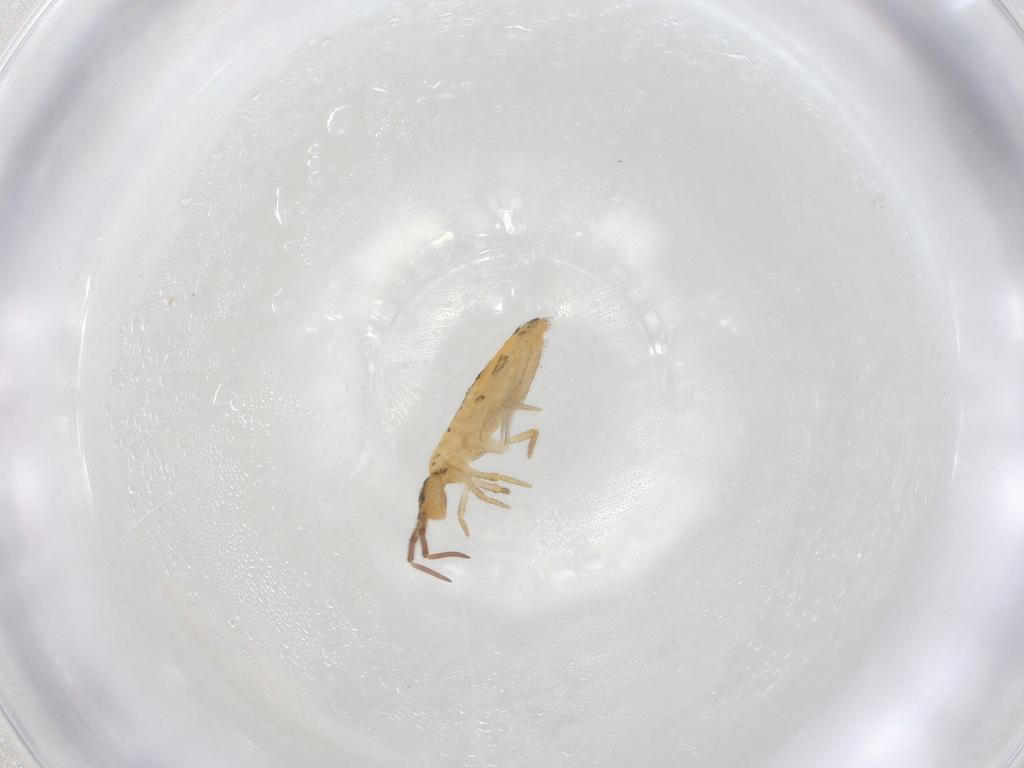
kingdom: Animalia
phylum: Arthropoda
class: Collembola
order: Entomobryomorpha
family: Entomobryidae
